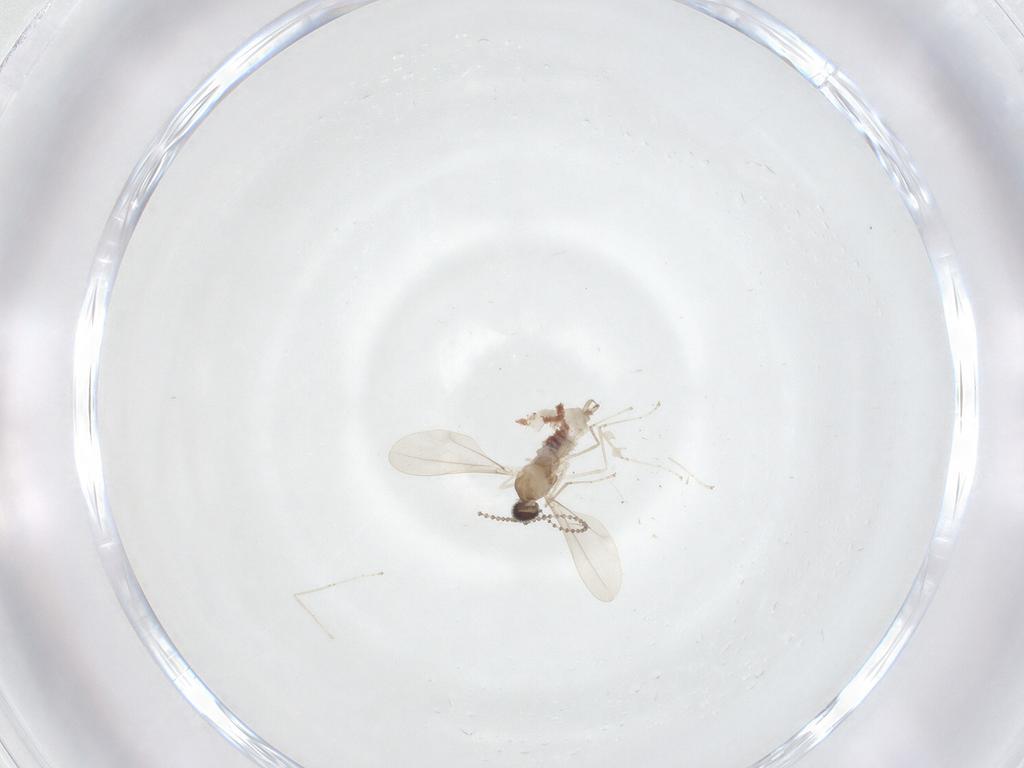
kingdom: Animalia
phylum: Arthropoda
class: Insecta
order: Diptera
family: Cecidomyiidae
